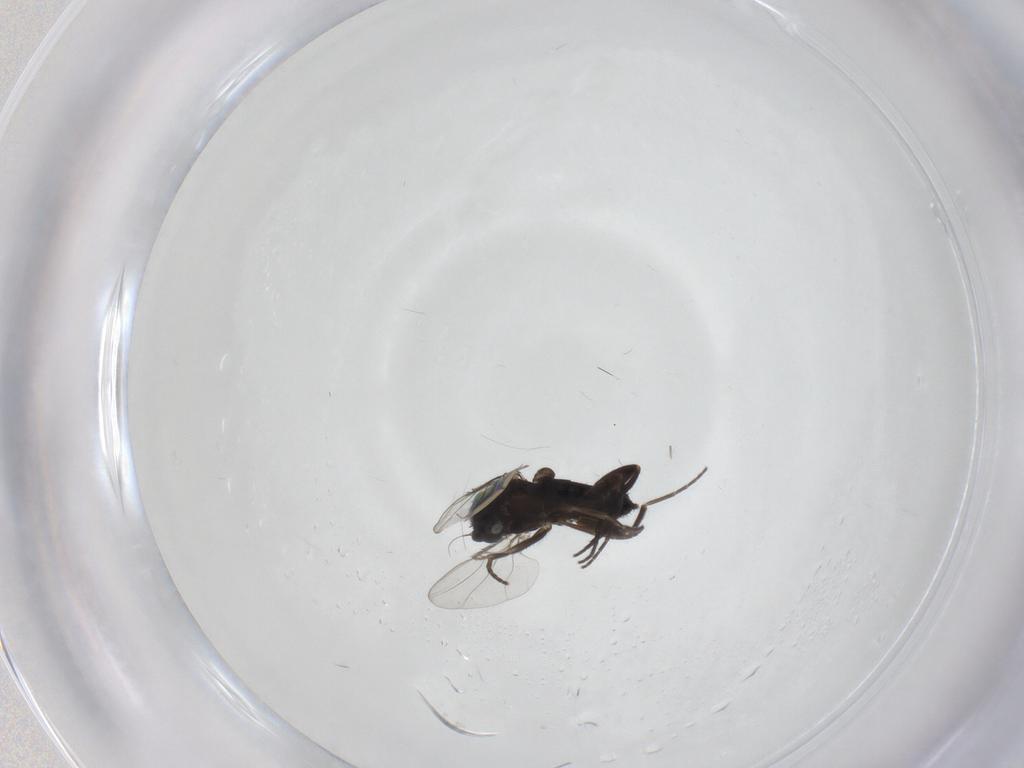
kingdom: Animalia
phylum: Arthropoda
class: Insecta
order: Diptera
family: Phoridae
